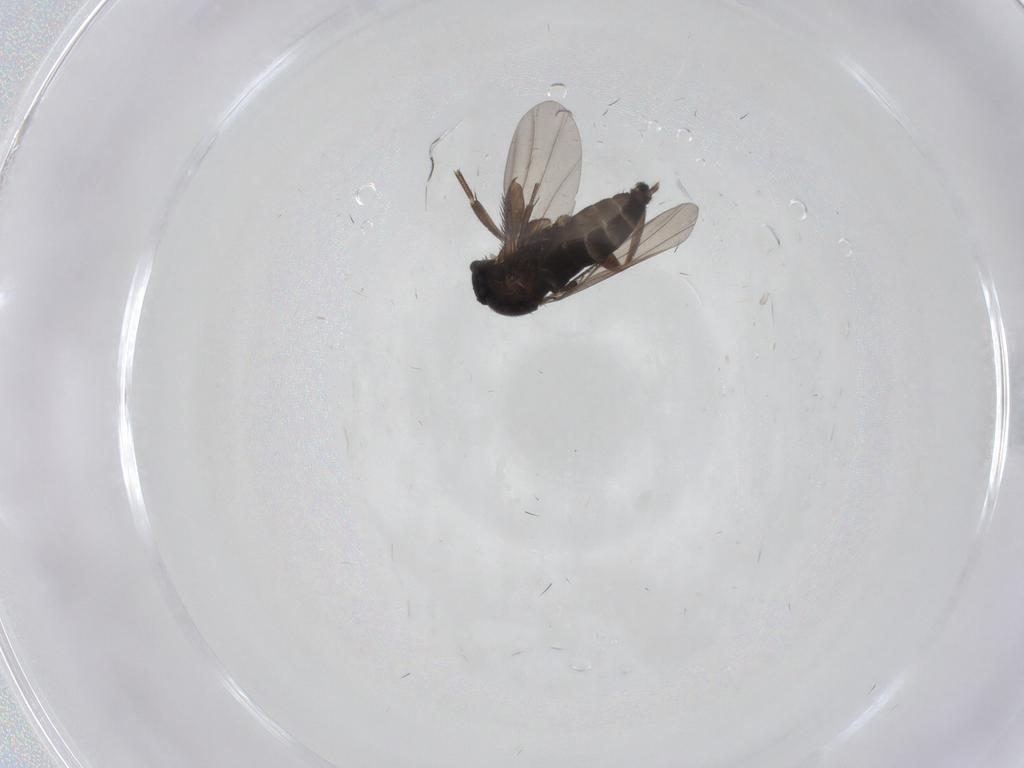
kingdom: Animalia
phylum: Arthropoda
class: Insecta
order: Diptera
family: Phoridae
